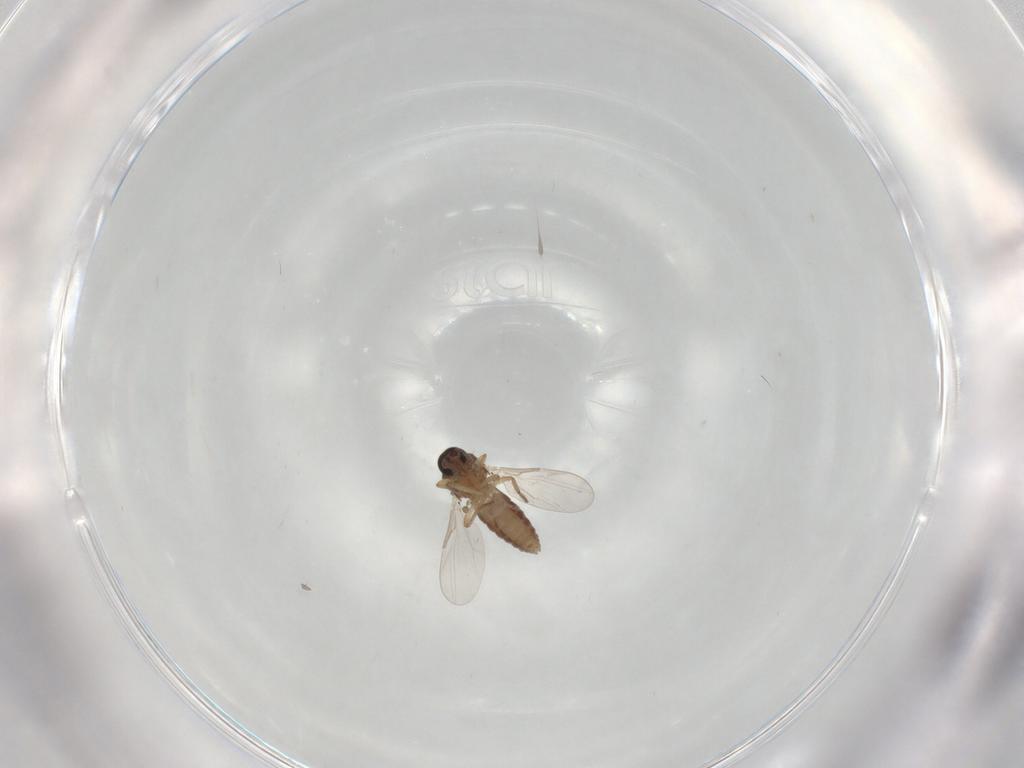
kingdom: Animalia
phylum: Arthropoda
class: Insecta
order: Diptera
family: Ceratopogonidae
